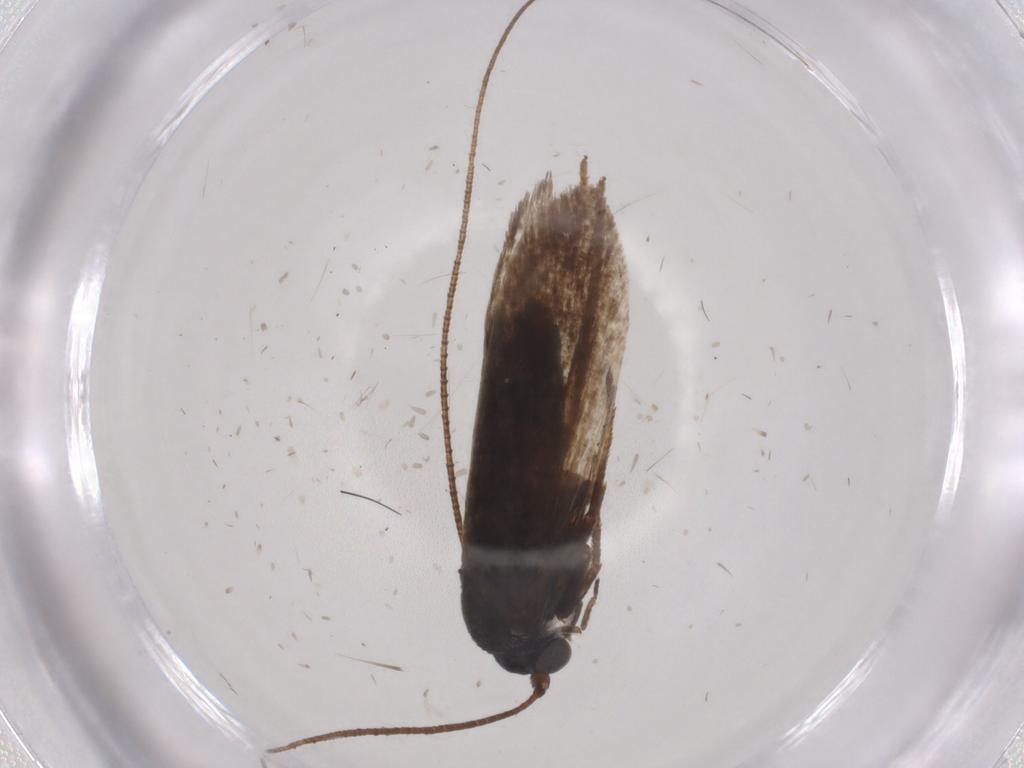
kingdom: Animalia
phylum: Arthropoda
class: Insecta
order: Lepidoptera
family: Adelidae
